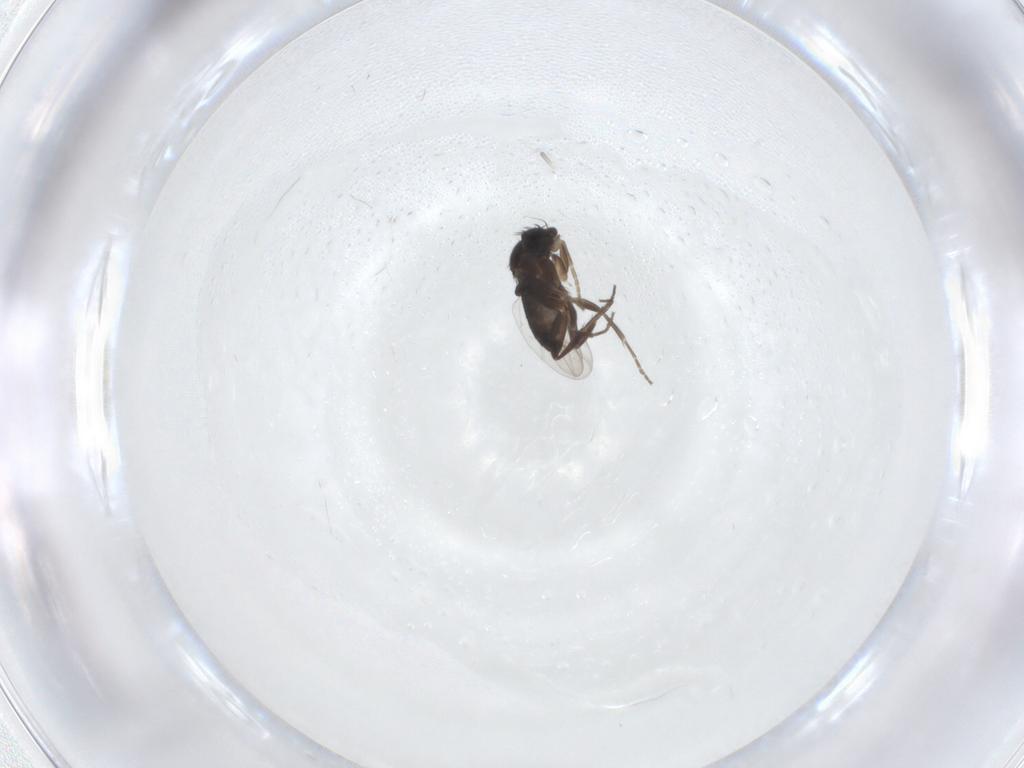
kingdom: Animalia
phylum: Arthropoda
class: Insecta
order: Diptera
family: Phoridae
